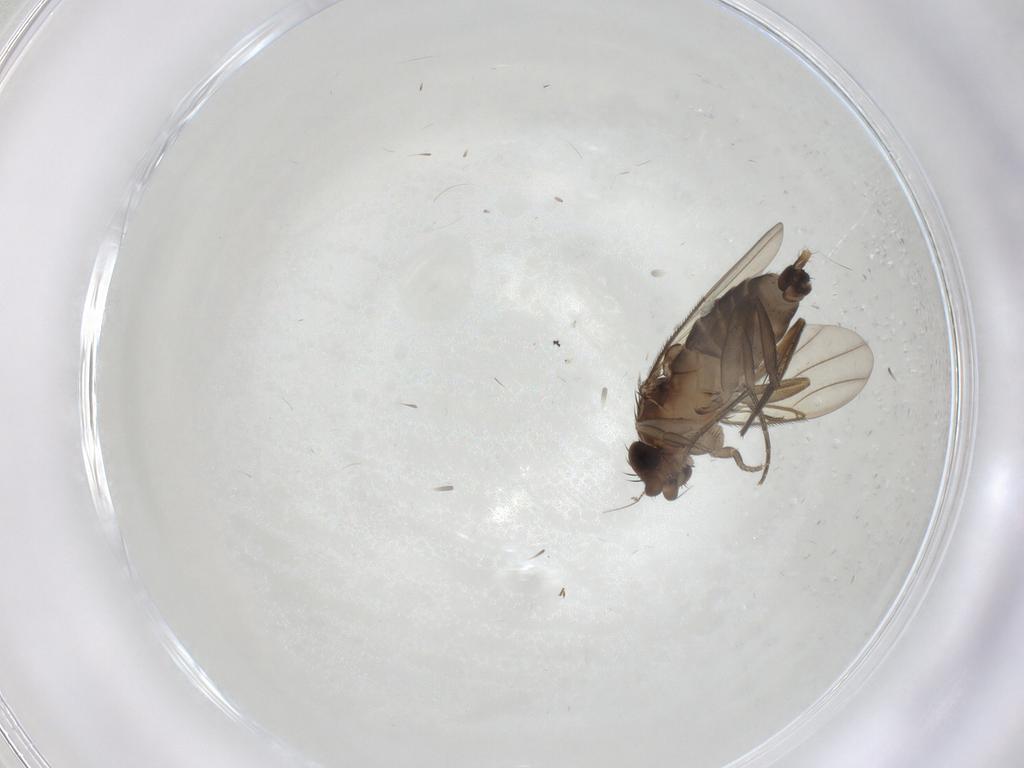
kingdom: Animalia
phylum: Arthropoda
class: Insecta
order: Diptera
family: Phoridae
